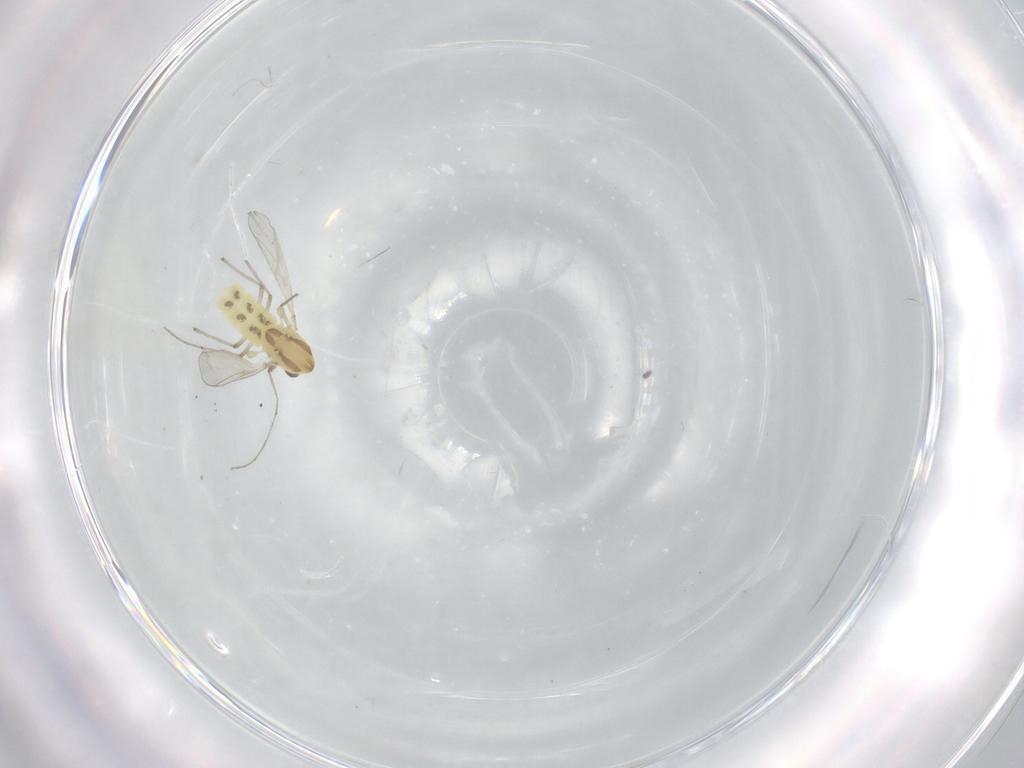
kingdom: Animalia
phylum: Arthropoda
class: Insecta
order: Diptera
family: Chironomidae
